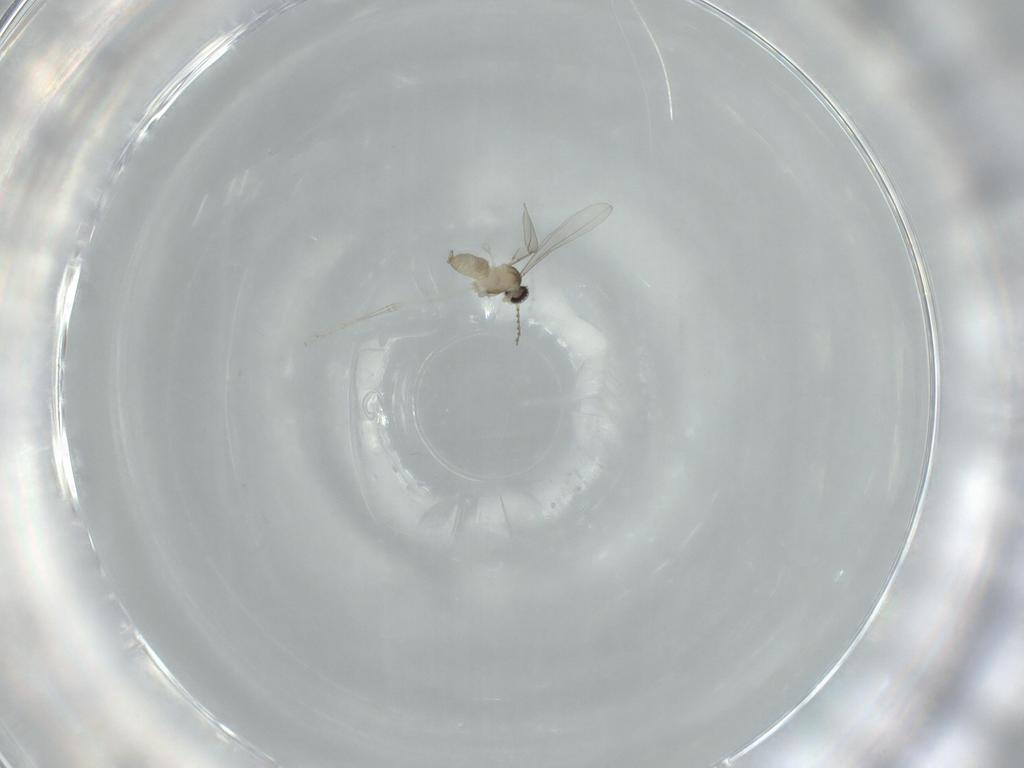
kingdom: Animalia
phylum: Arthropoda
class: Insecta
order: Diptera
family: Cecidomyiidae
